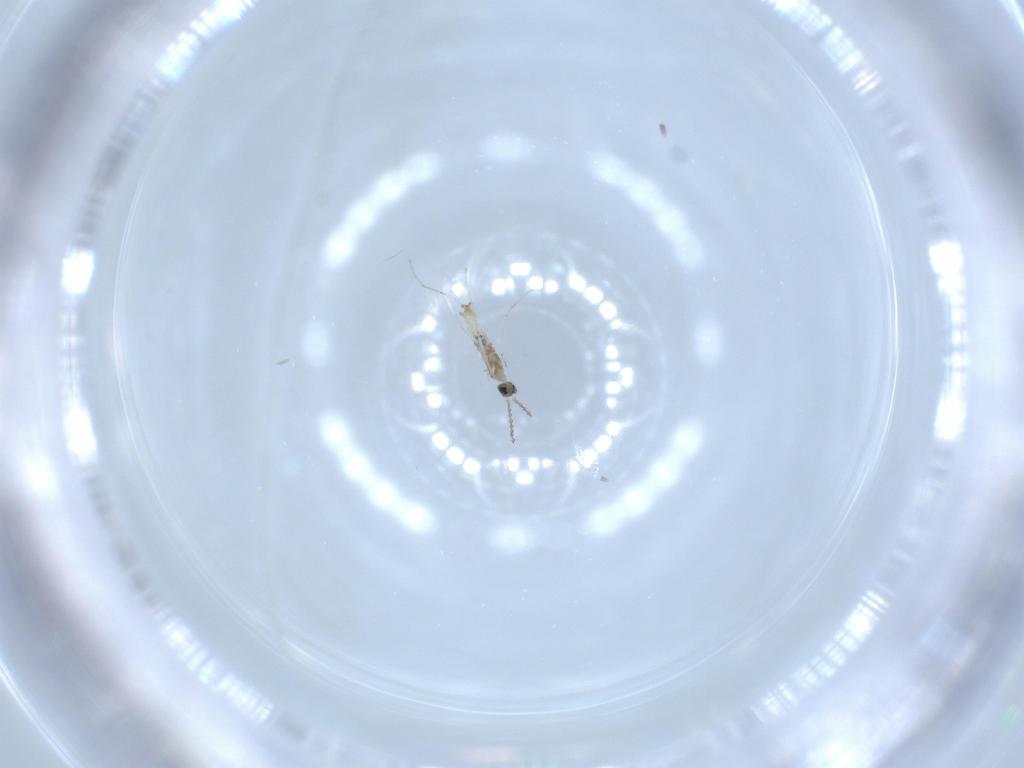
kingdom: Animalia
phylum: Arthropoda
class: Insecta
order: Diptera
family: Cecidomyiidae
